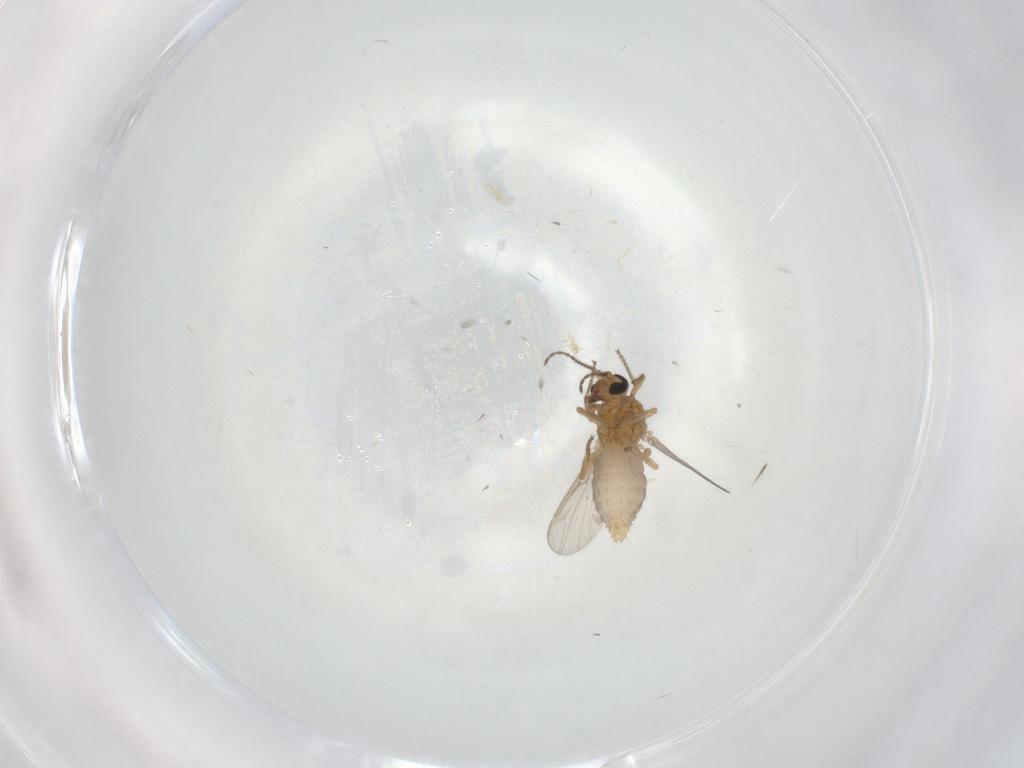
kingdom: Animalia
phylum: Arthropoda
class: Insecta
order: Diptera
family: Ceratopogonidae
